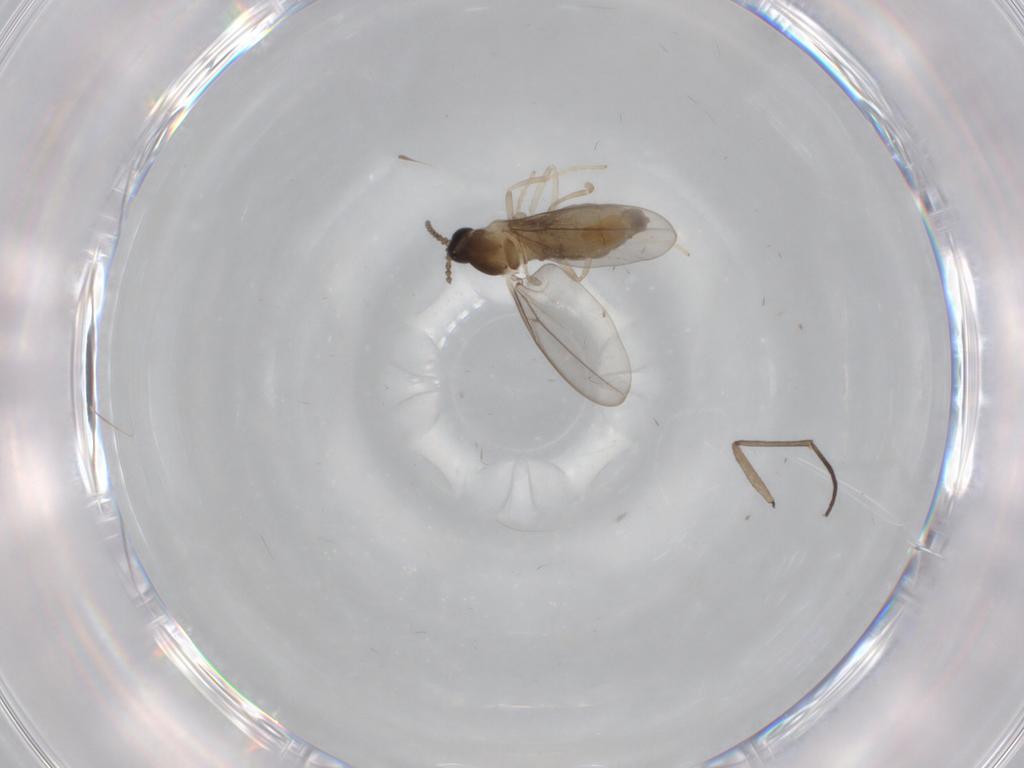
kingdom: Animalia
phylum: Arthropoda
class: Insecta
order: Diptera
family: Cecidomyiidae
